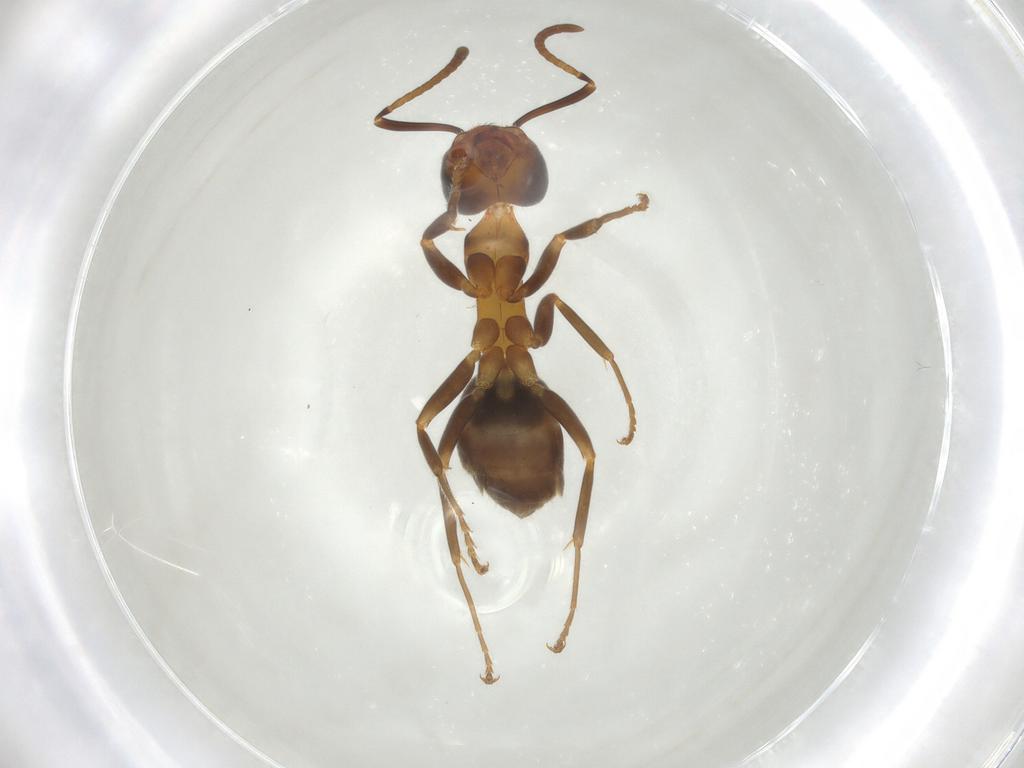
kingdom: Animalia
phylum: Arthropoda
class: Insecta
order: Hymenoptera
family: Formicidae
